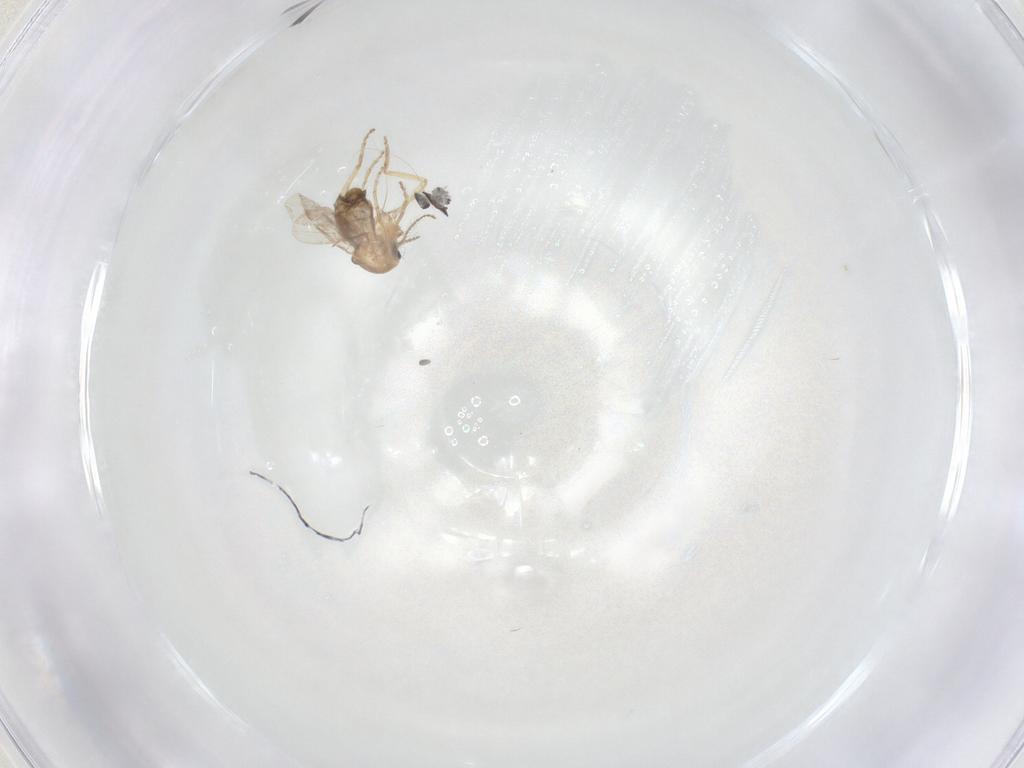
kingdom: Animalia
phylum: Arthropoda
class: Insecta
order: Diptera
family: Ceratopogonidae
